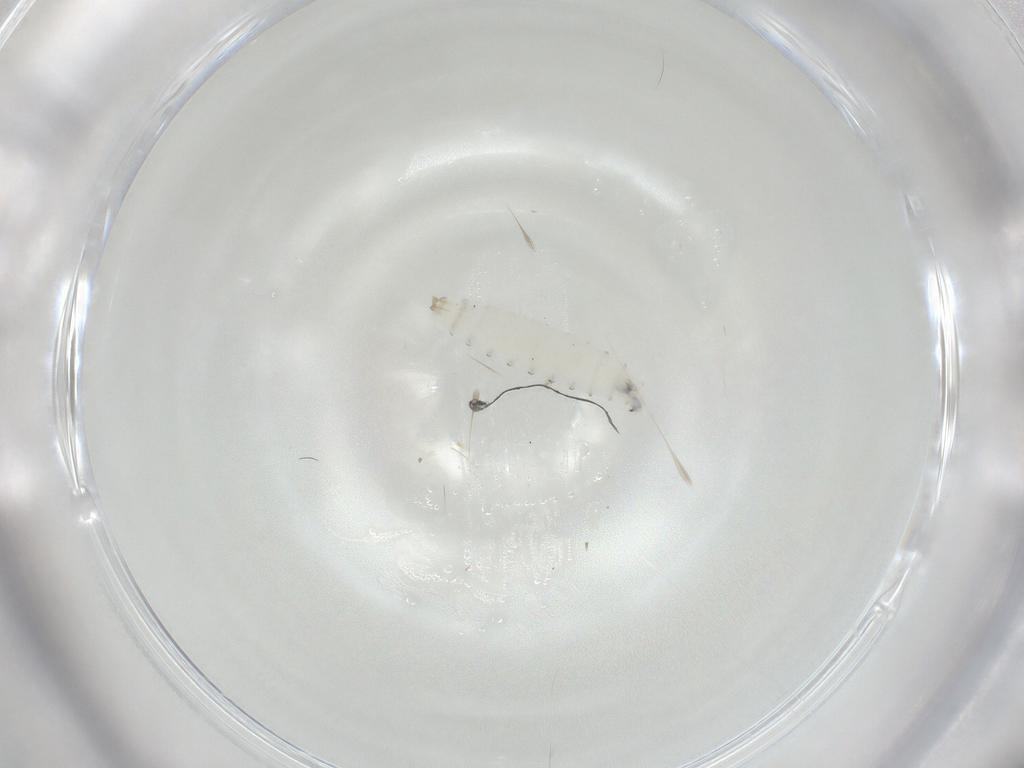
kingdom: Animalia
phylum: Arthropoda
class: Insecta
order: Diptera
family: Drosophilidae
